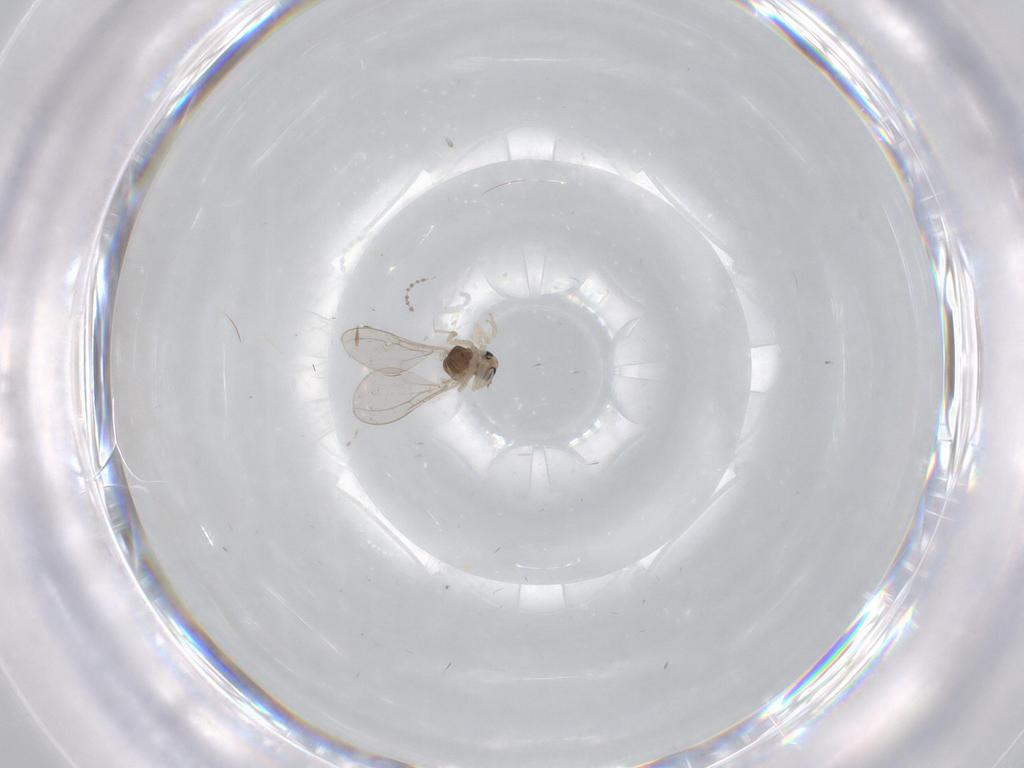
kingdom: Animalia
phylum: Arthropoda
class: Insecta
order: Diptera
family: Cecidomyiidae
